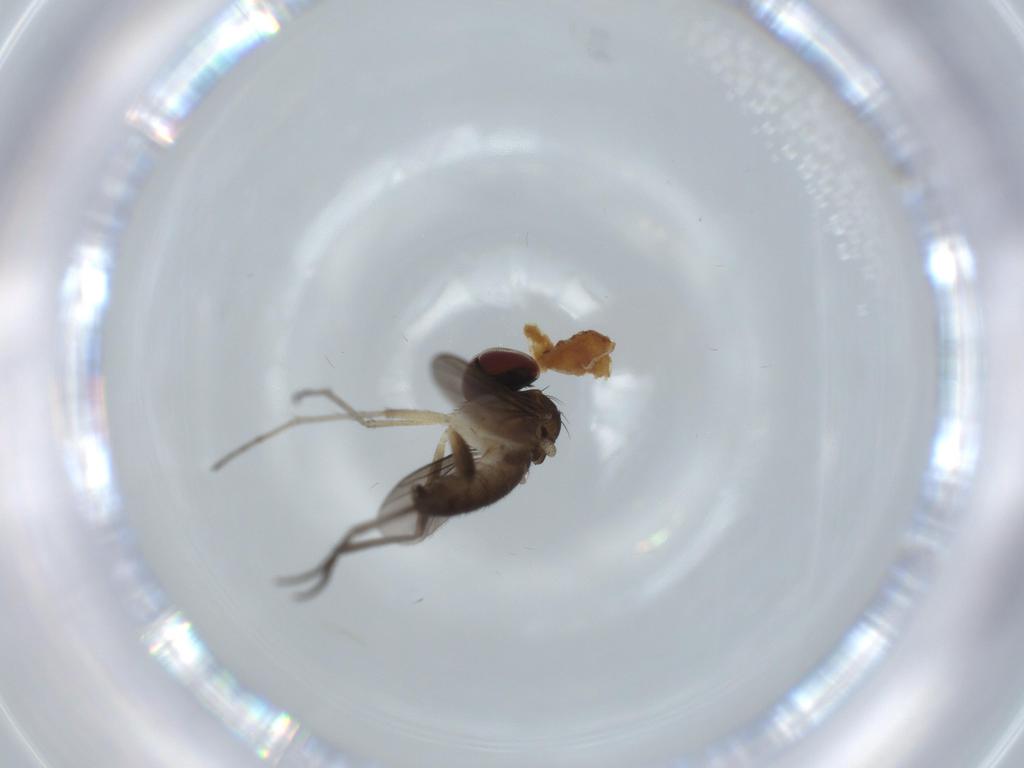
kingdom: Animalia
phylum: Arthropoda
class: Insecta
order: Diptera
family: Dolichopodidae
